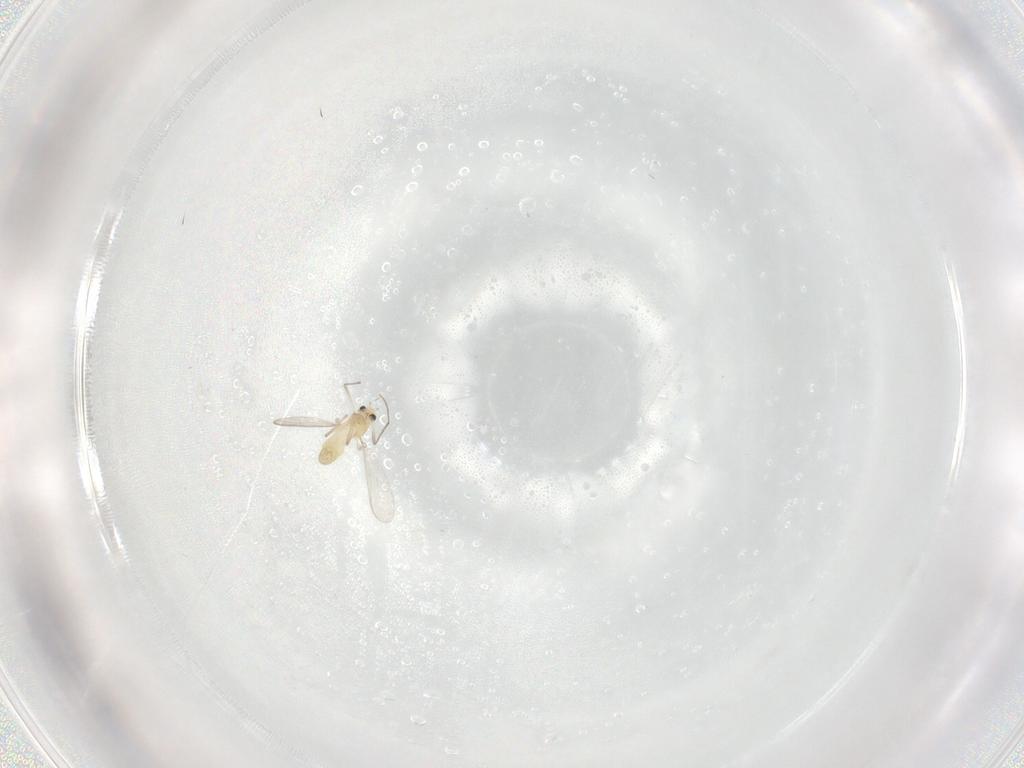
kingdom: Animalia
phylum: Arthropoda
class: Insecta
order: Diptera
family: Chironomidae
